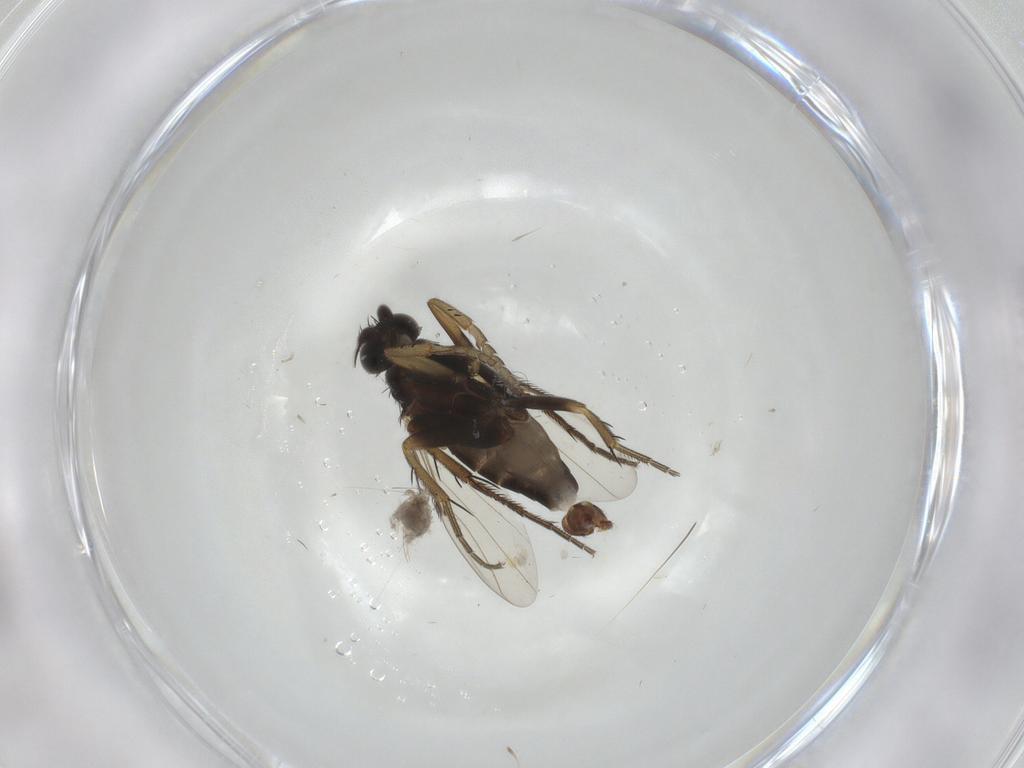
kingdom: Animalia
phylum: Arthropoda
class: Insecta
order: Diptera
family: Phoridae
